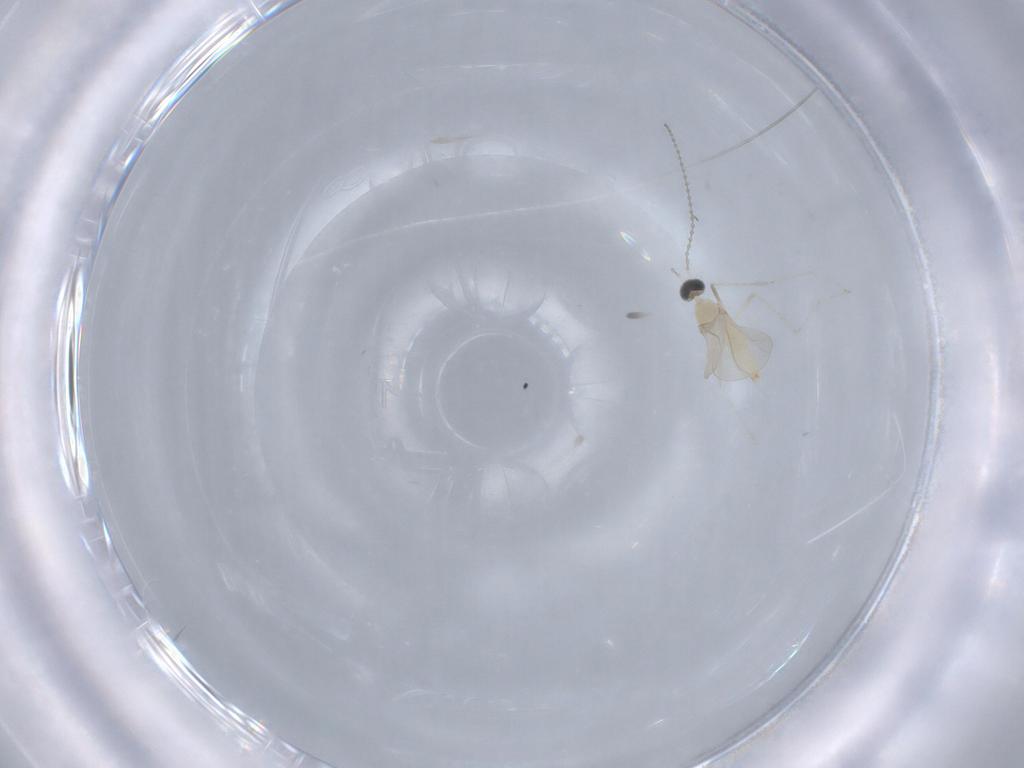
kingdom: Animalia
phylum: Arthropoda
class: Insecta
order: Diptera
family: Cecidomyiidae
